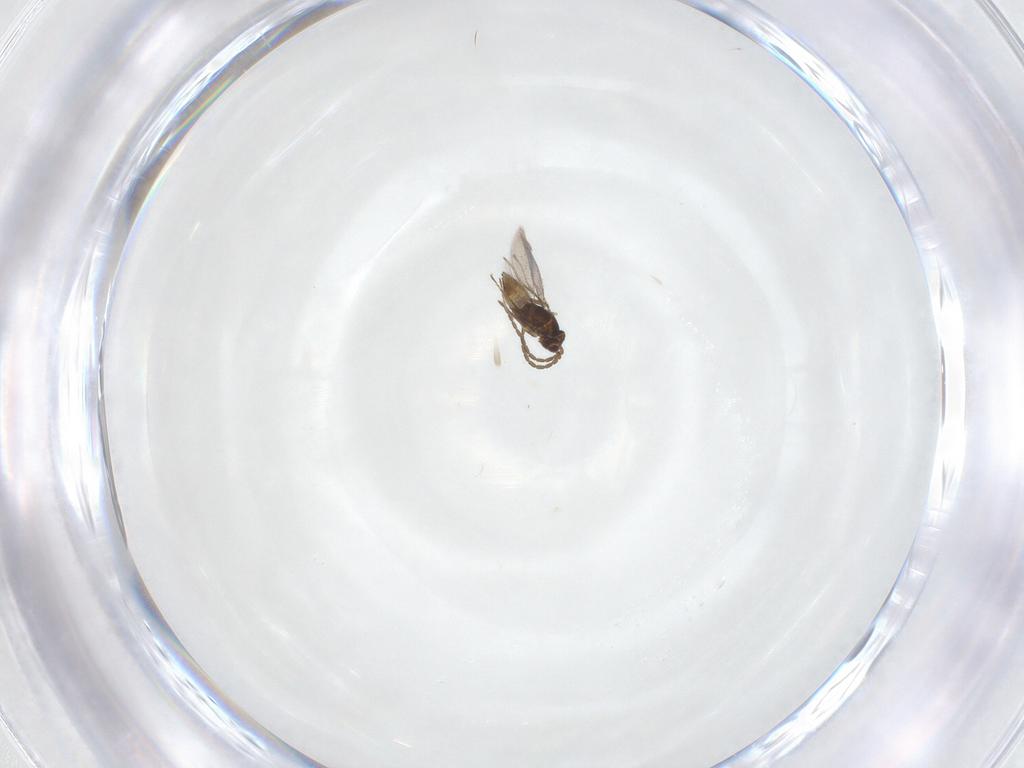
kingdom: Animalia
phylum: Arthropoda
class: Insecta
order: Hymenoptera
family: Mymaridae
